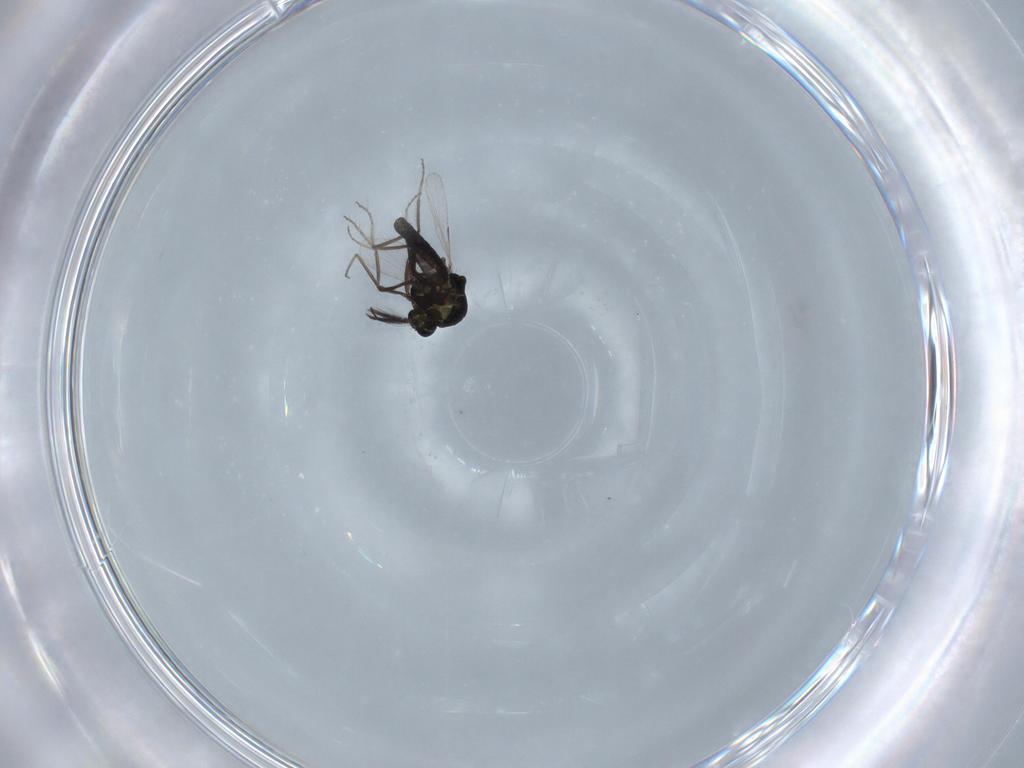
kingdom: Animalia
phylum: Arthropoda
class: Insecta
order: Diptera
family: Ceratopogonidae
